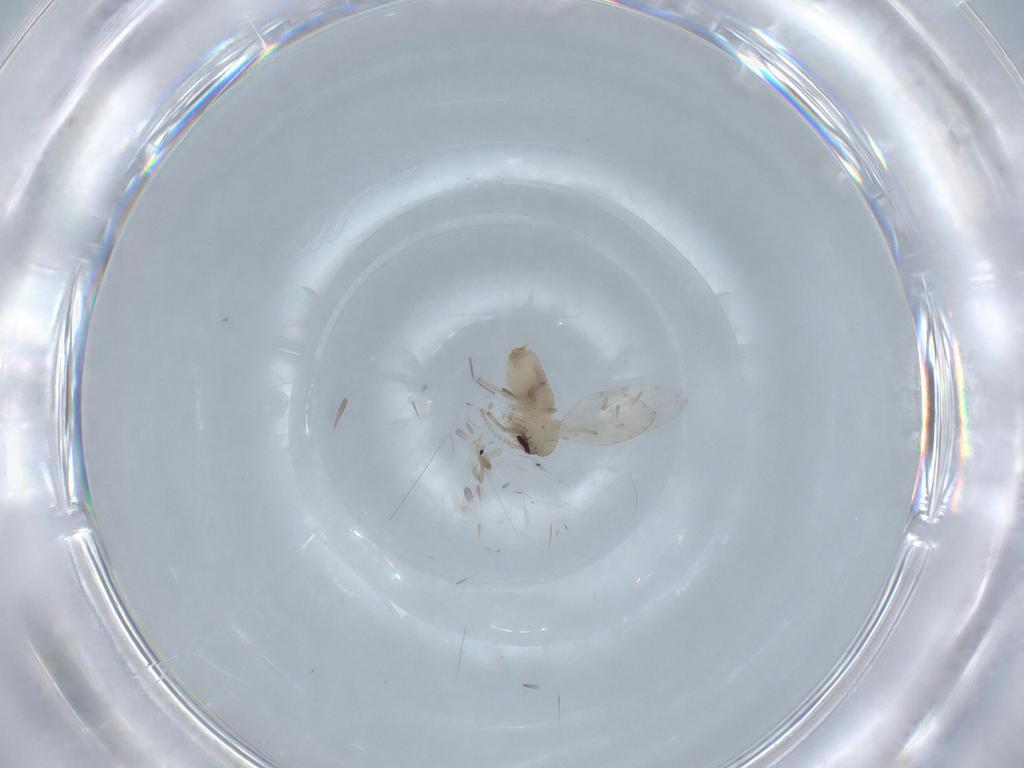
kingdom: Animalia
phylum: Arthropoda
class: Insecta
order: Diptera
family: Psychodidae
